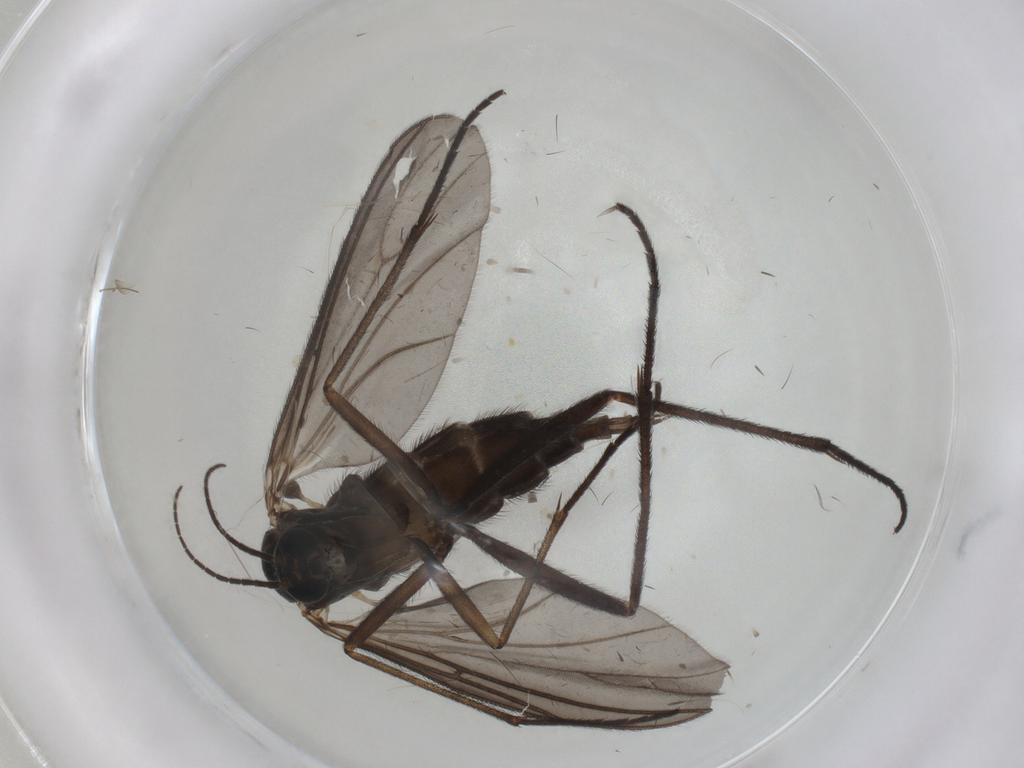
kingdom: Animalia
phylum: Arthropoda
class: Insecta
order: Diptera
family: Sciaridae
